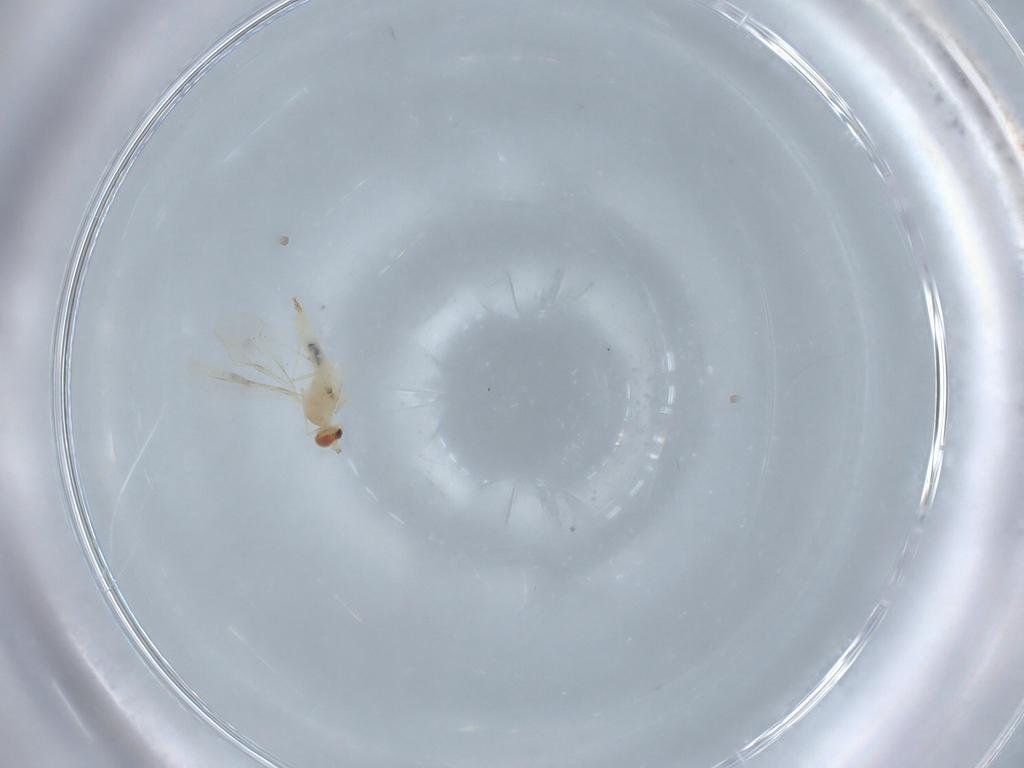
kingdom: Animalia
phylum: Arthropoda
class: Insecta
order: Diptera
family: Cecidomyiidae
